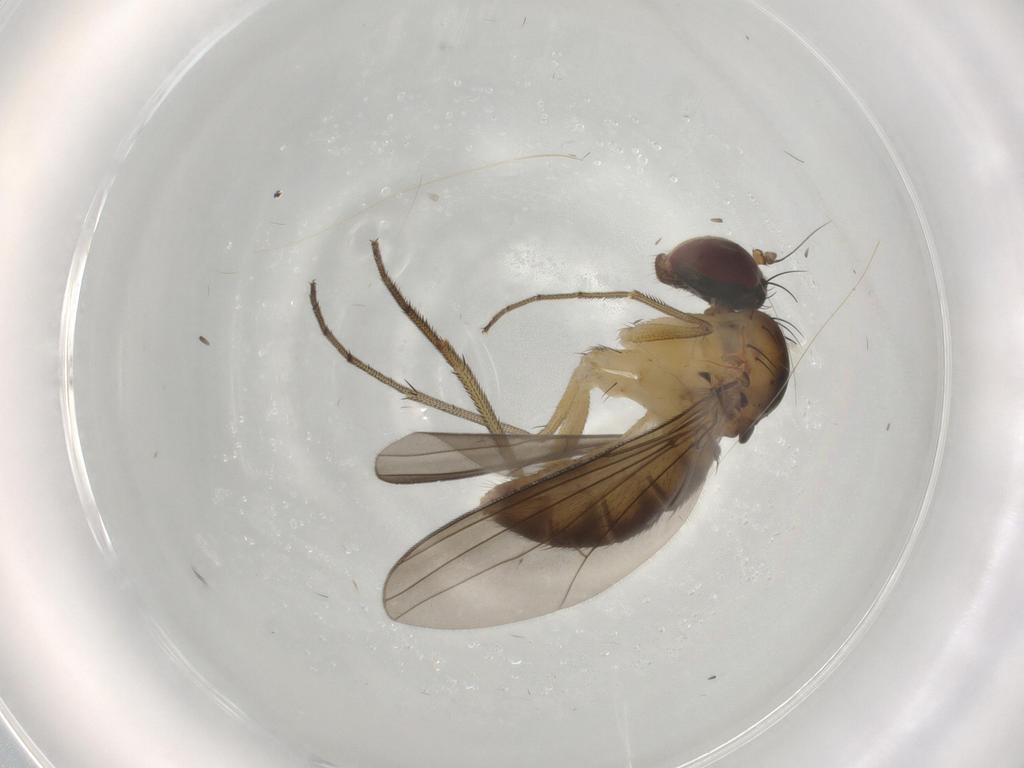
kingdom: Animalia
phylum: Arthropoda
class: Insecta
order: Diptera
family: Dolichopodidae
